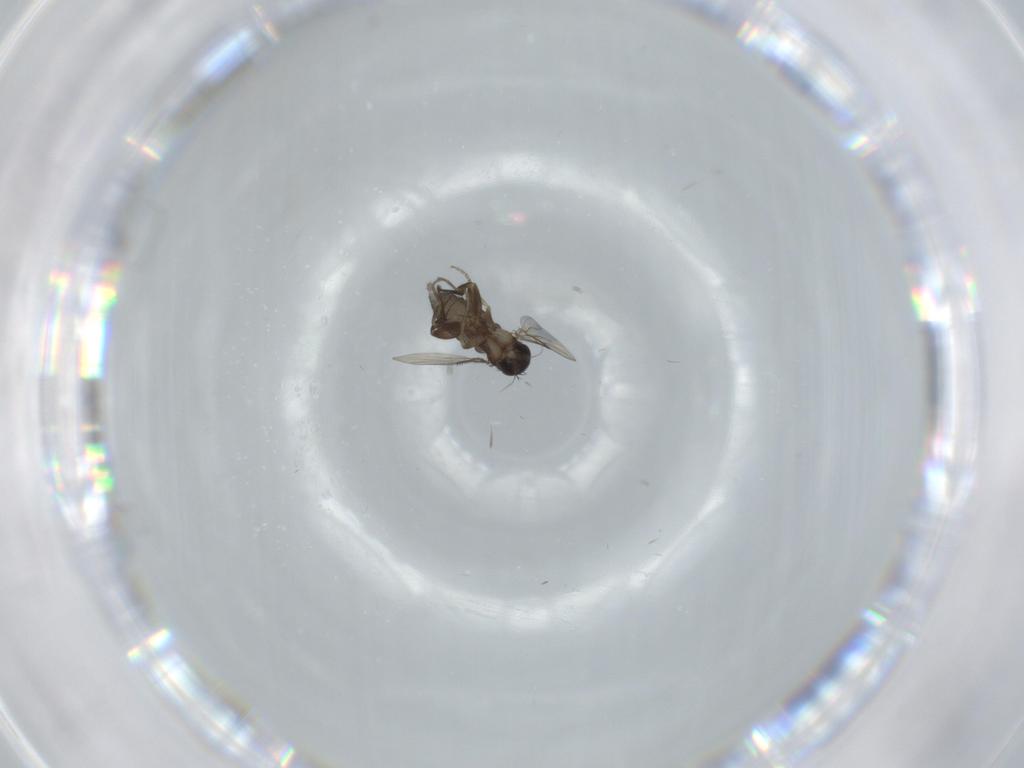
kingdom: Animalia
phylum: Arthropoda
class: Insecta
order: Diptera
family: Phoridae
